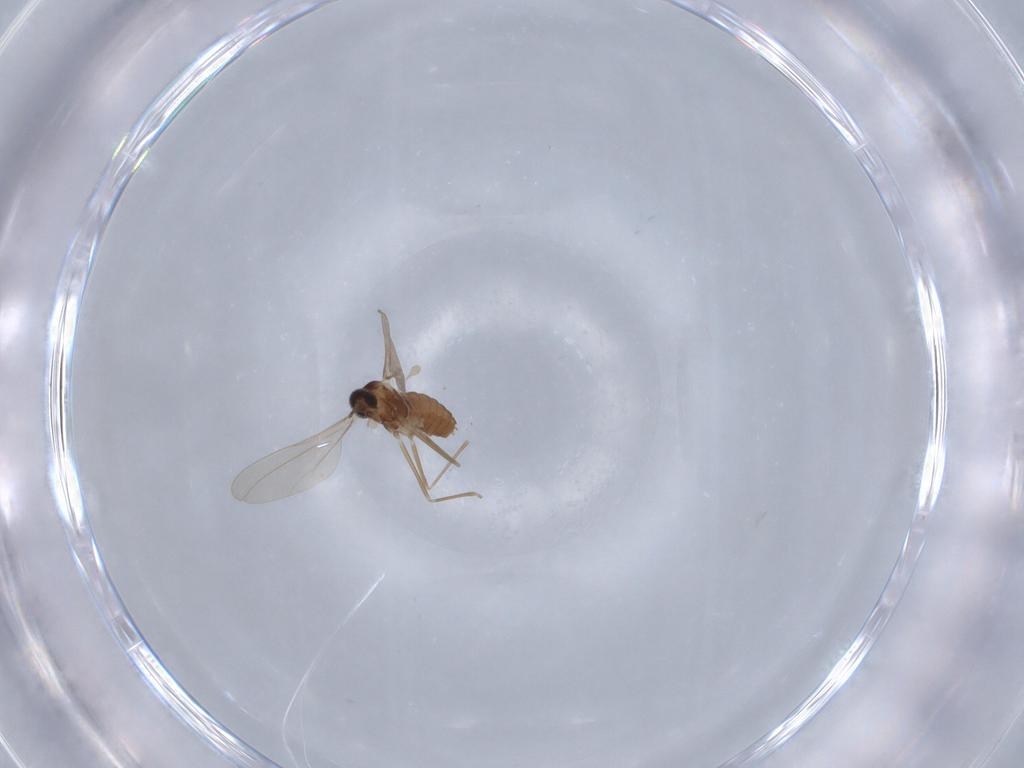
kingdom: Animalia
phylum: Arthropoda
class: Insecta
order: Diptera
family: Cecidomyiidae
